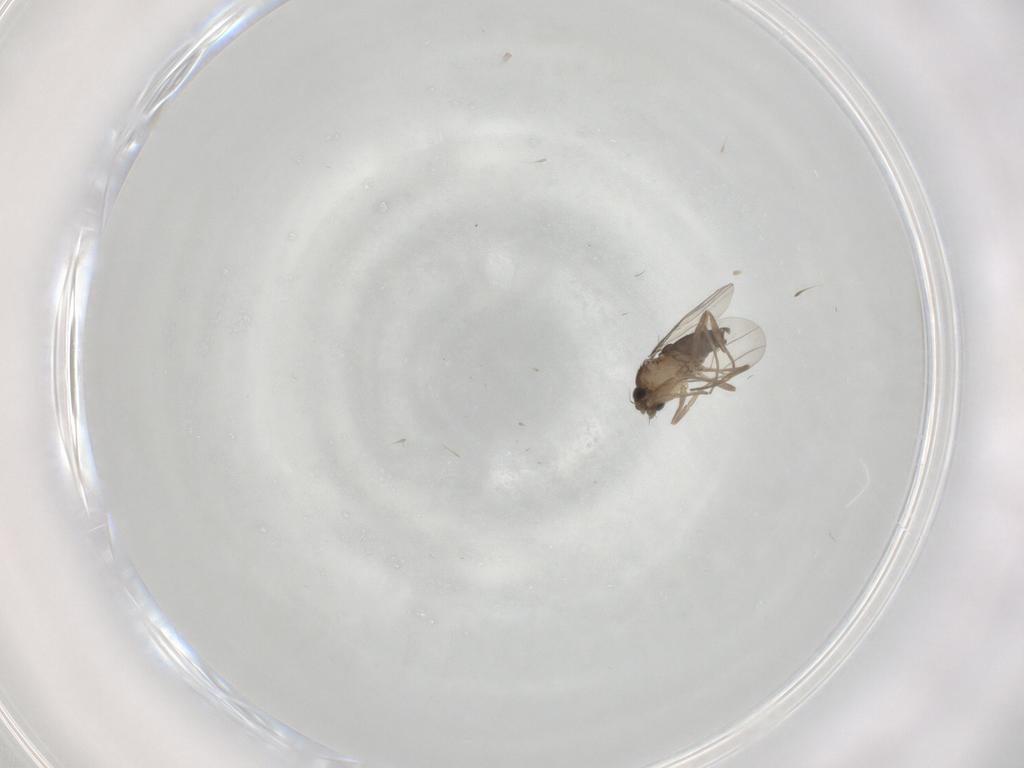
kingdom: Animalia
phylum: Arthropoda
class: Insecta
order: Diptera
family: Phoridae
